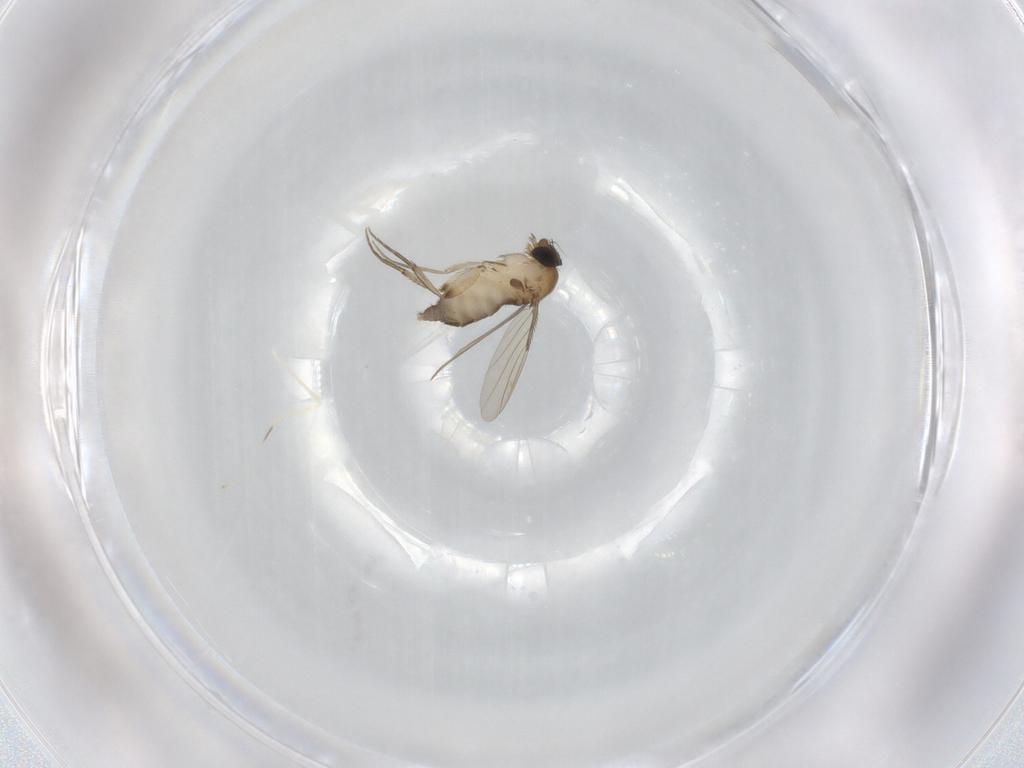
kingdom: Animalia
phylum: Arthropoda
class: Insecta
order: Diptera
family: Phoridae
